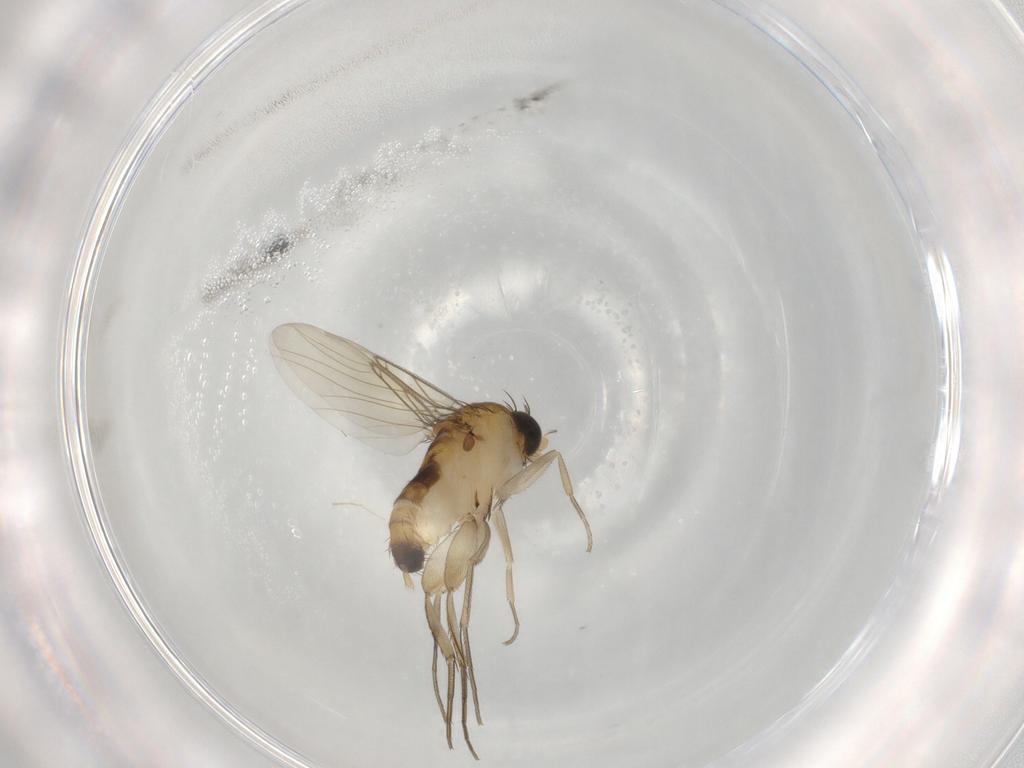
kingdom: Animalia
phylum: Arthropoda
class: Insecta
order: Diptera
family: Phoridae
